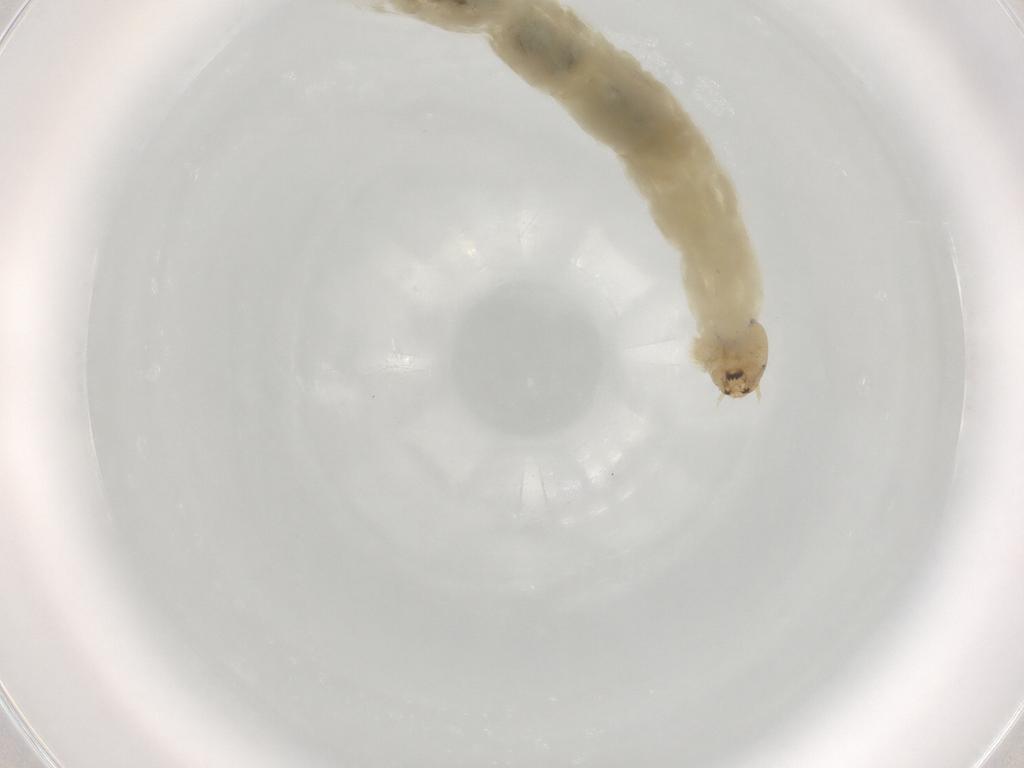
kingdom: Animalia
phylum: Arthropoda
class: Insecta
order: Diptera
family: Chironomidae
